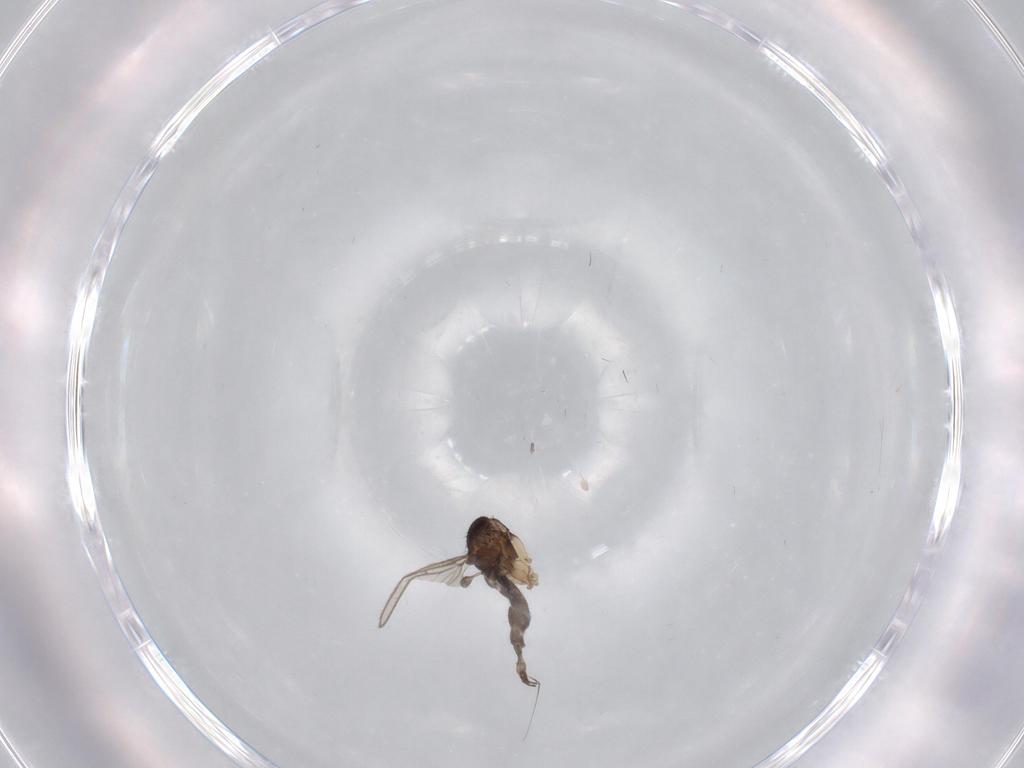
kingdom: Animalia
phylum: Arthropoda
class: Insecta
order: Diptera
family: Sciaridae
